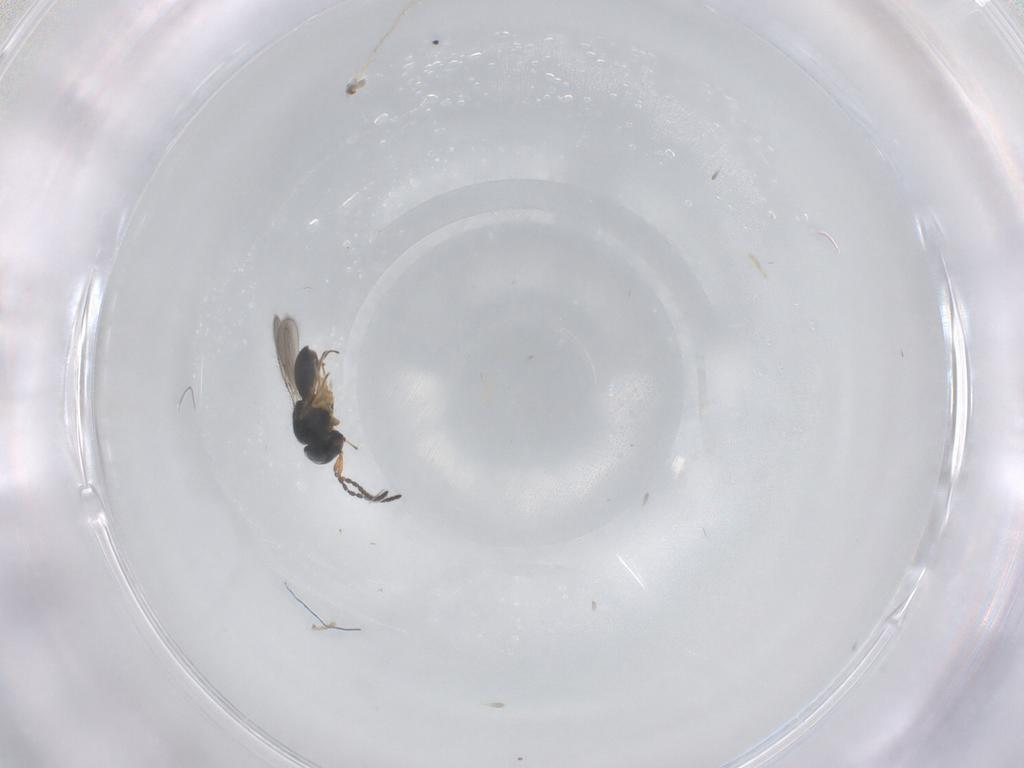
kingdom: Animalia
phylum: Arthropoda
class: Insecta
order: Hymenoptera
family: Scelionidae
